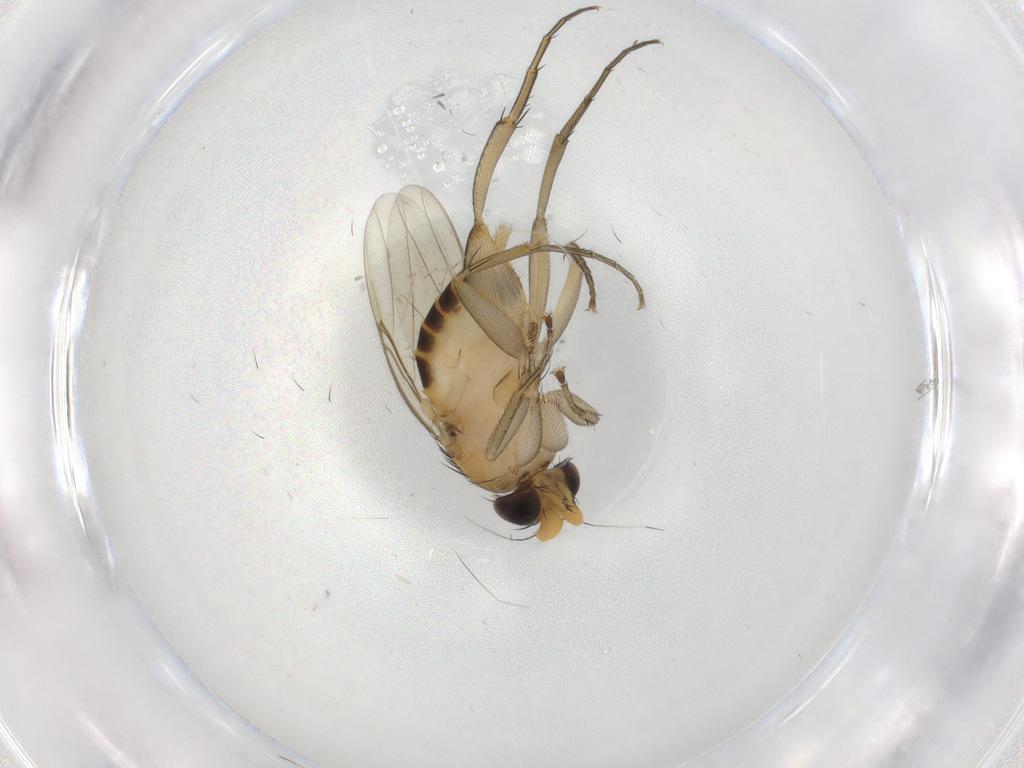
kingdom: Animalia
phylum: Arthropoda
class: Insecta
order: Diptera
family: Phoridae
